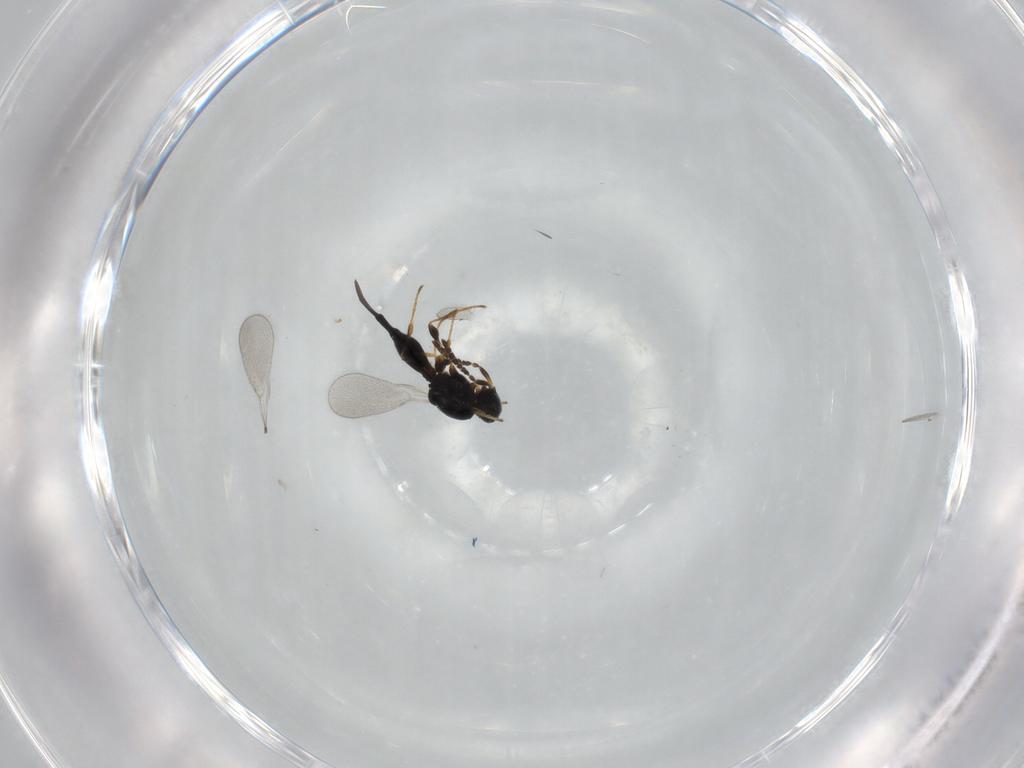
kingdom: Animalia
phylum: Arthropoda
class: Insecta
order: Hymenoptera
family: Platygastridae
